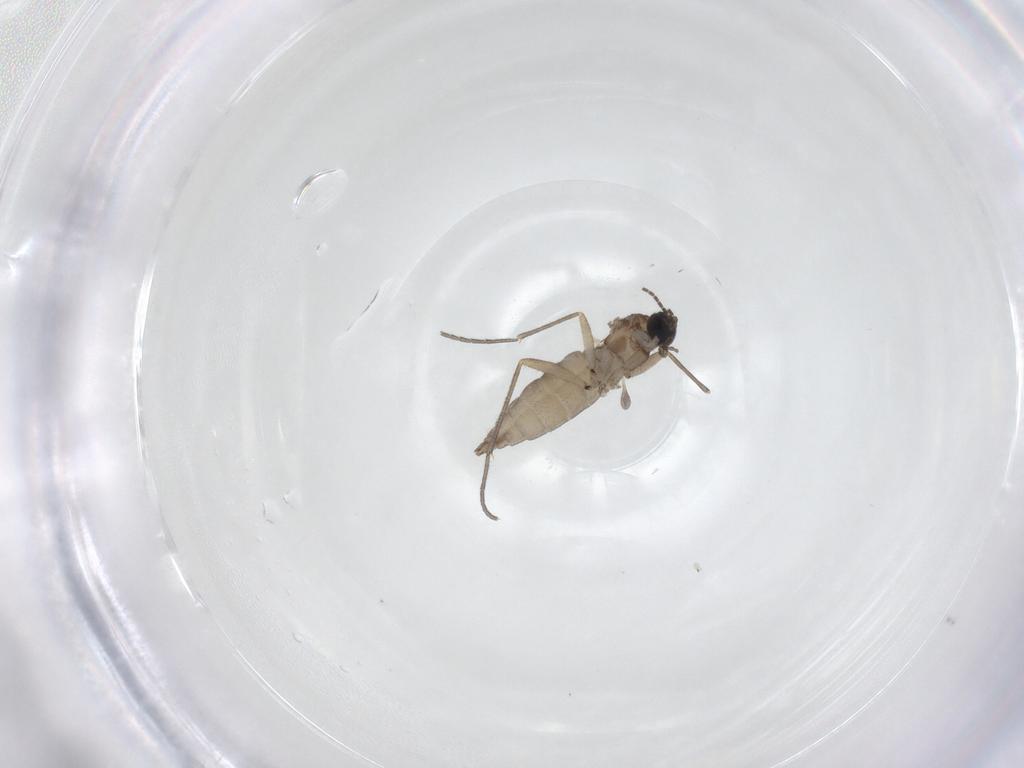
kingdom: Animalia
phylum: Arthropoda
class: Insecta
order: Diptera
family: Sciaridae
